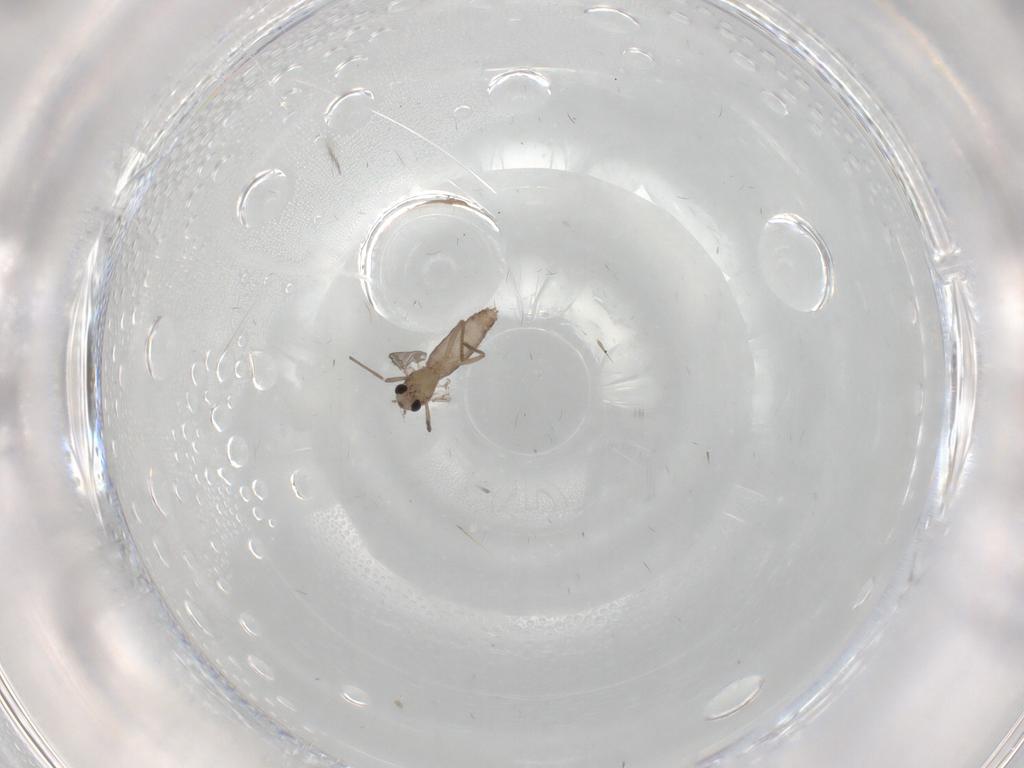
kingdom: Animalia
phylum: Arthropoda
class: Insecta
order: Diptera
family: Chironomidae
